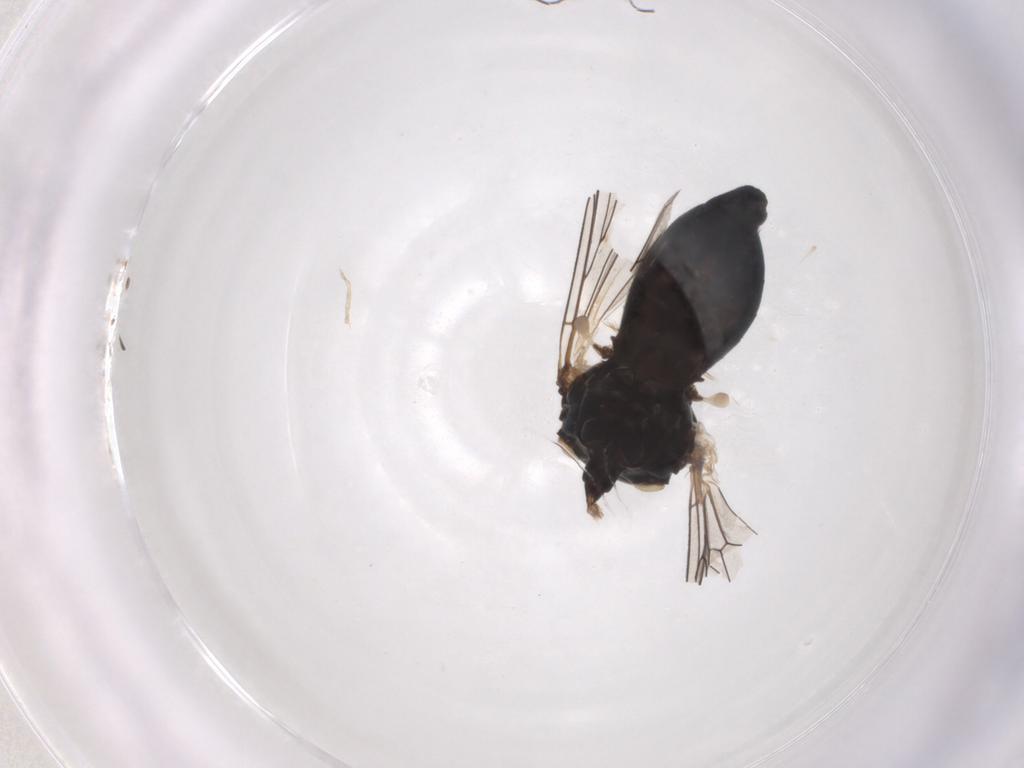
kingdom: Animalia
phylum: Arthropoda
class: Insecta
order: Diptera
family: Pipunculidae
